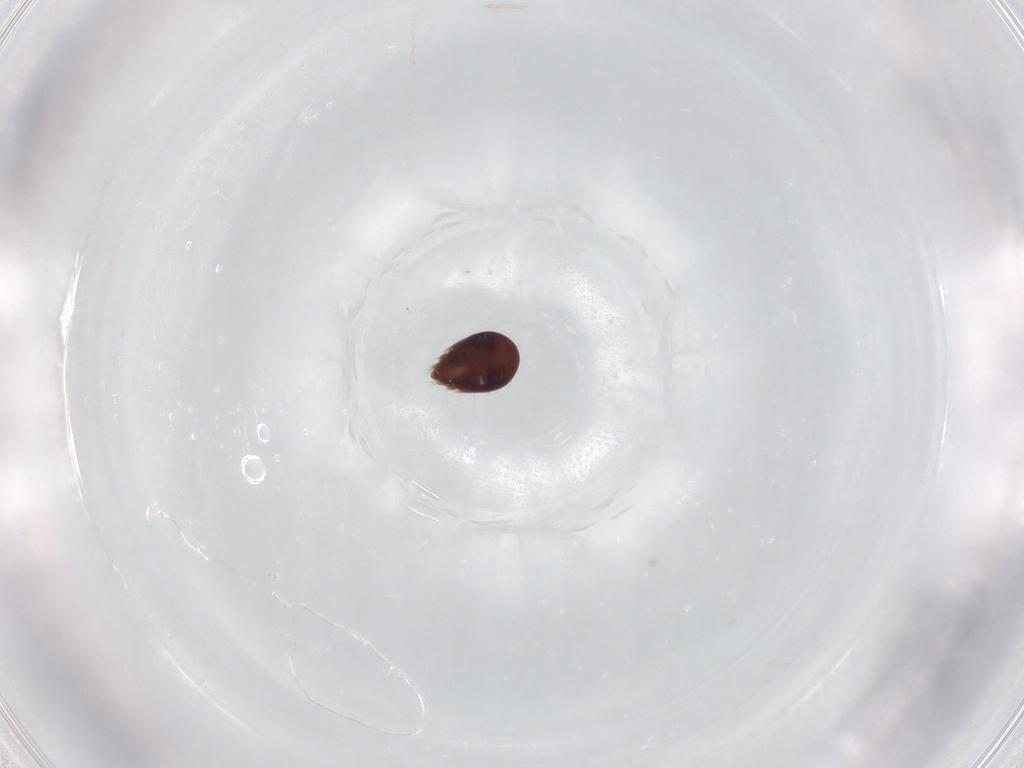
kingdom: Animalia
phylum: Arthropoda
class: Arachnida
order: Sarcoptiformes
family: Humerobatidae
